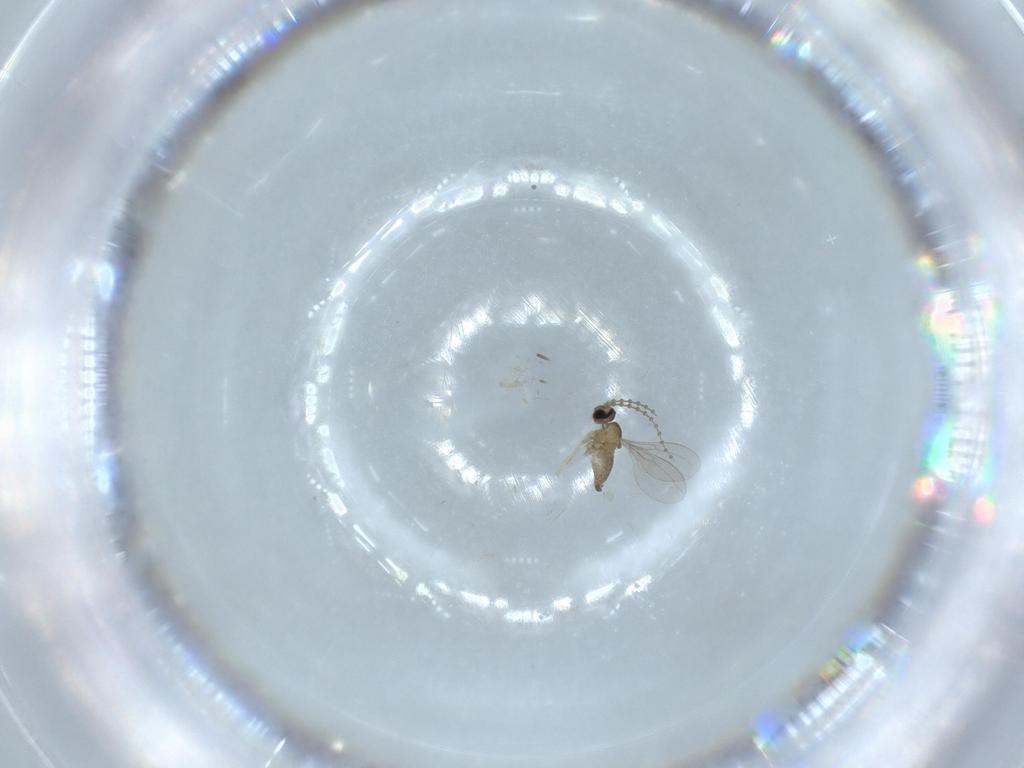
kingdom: Animalia
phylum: Arthropoda
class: Insecta
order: Diptera
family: Cecidomyiidae
